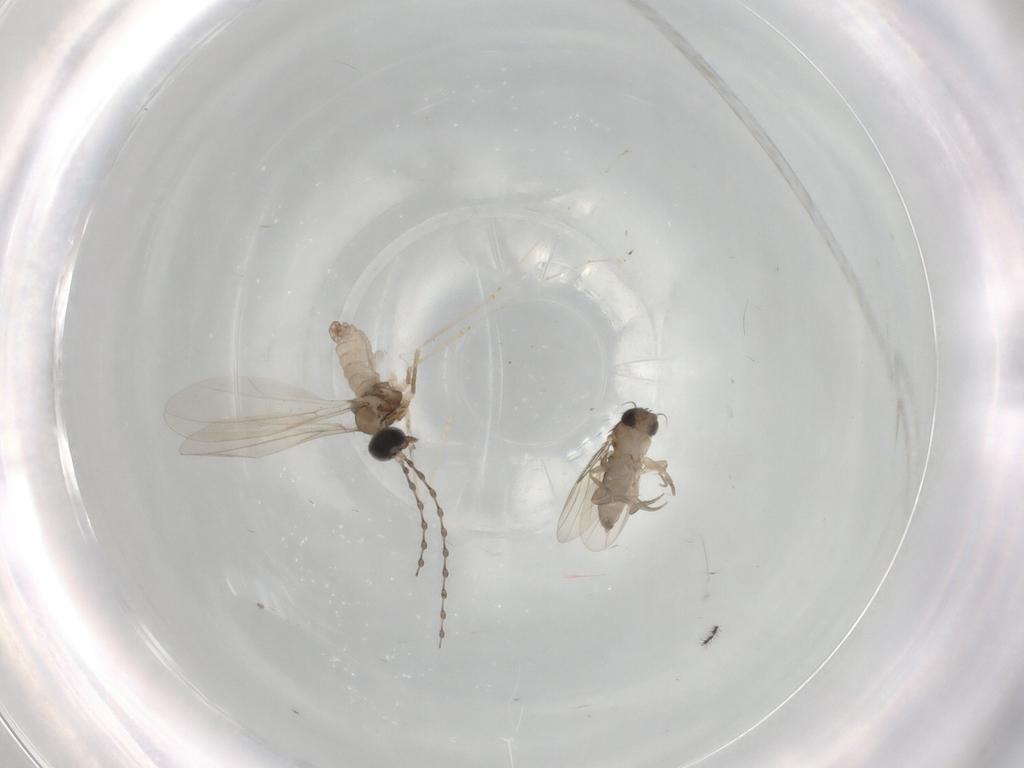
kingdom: Animalia
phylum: Arthropoda
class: Insecta
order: Diptera
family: Cecidomyiidae
